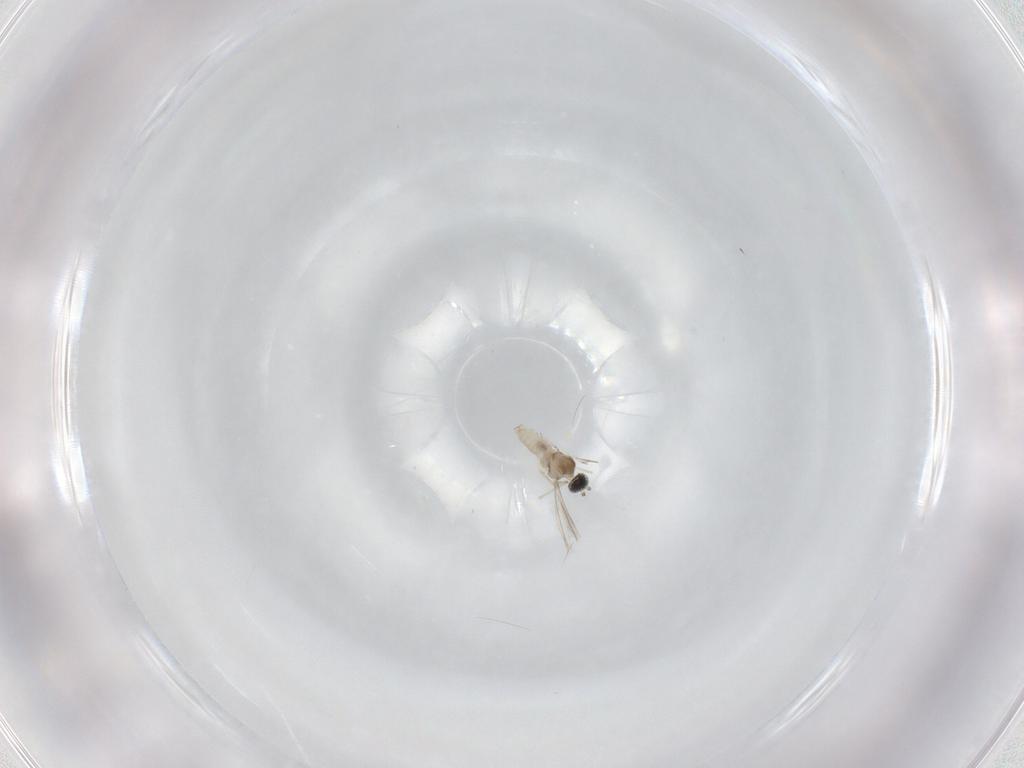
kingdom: Animalia
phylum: Arthropoda
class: Insecta
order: Diptera
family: Cecidomyiidae
